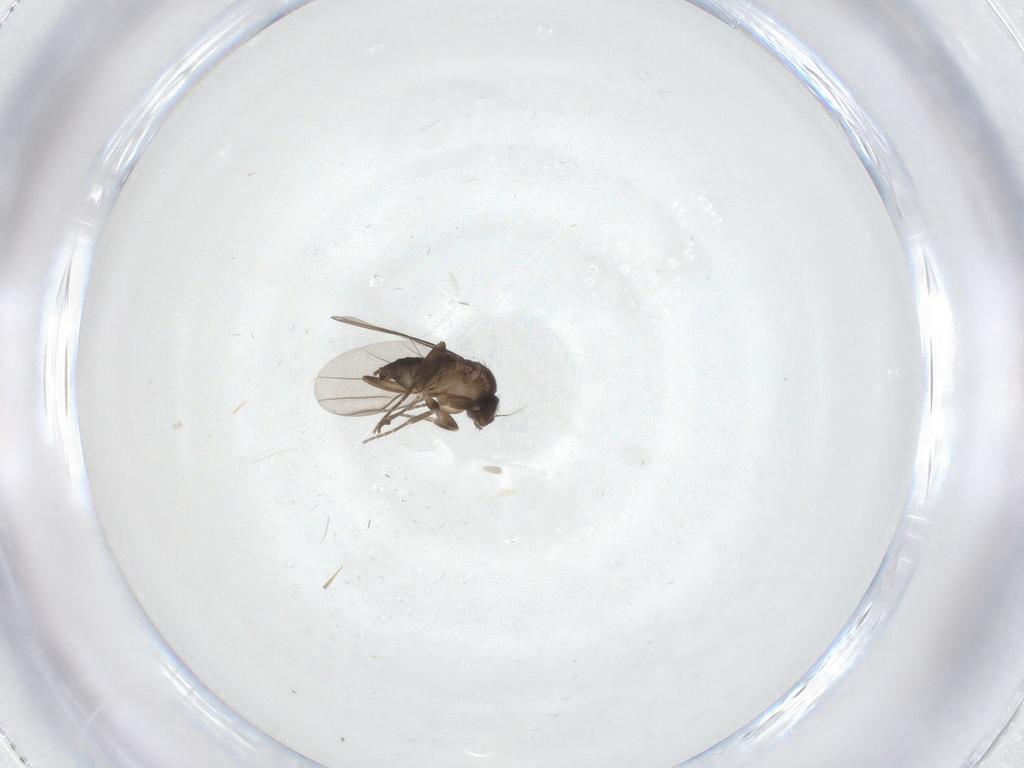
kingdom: Animalia
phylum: Arthropoda
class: Insecta
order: Diptera
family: Phoridae
